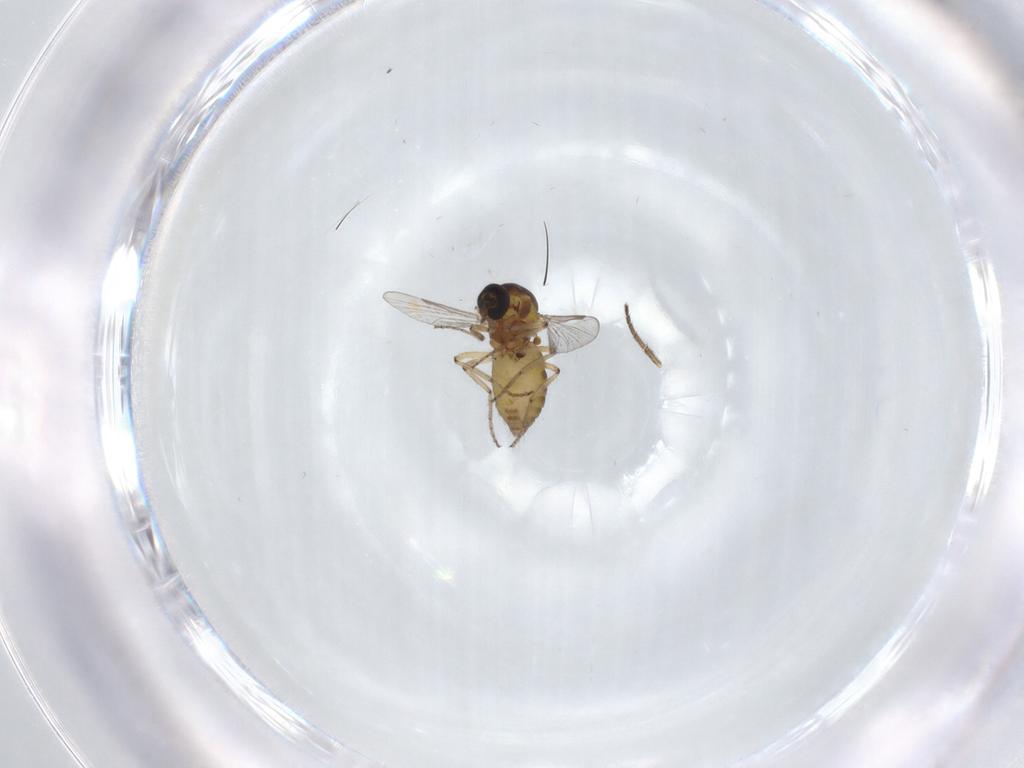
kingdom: Animalia
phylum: Arthropoda
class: Insecta
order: Diptera
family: Ceratopogonidae
